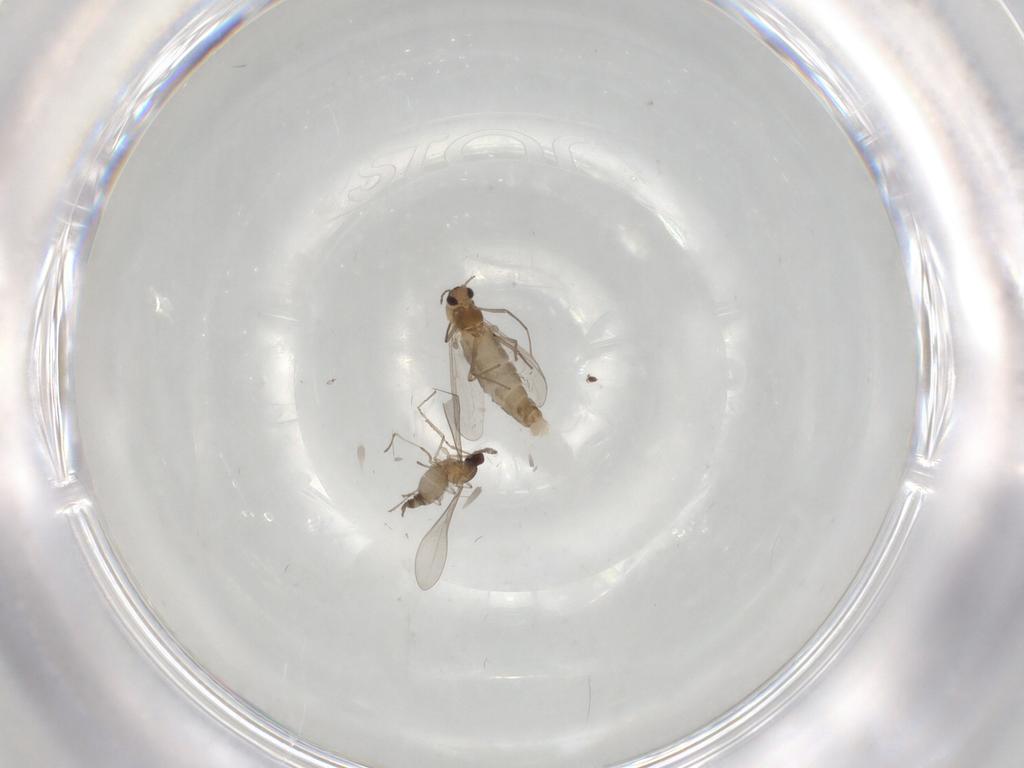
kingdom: Animalia
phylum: Arthropoda
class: Insecta
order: Diptera
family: Chironomidae
